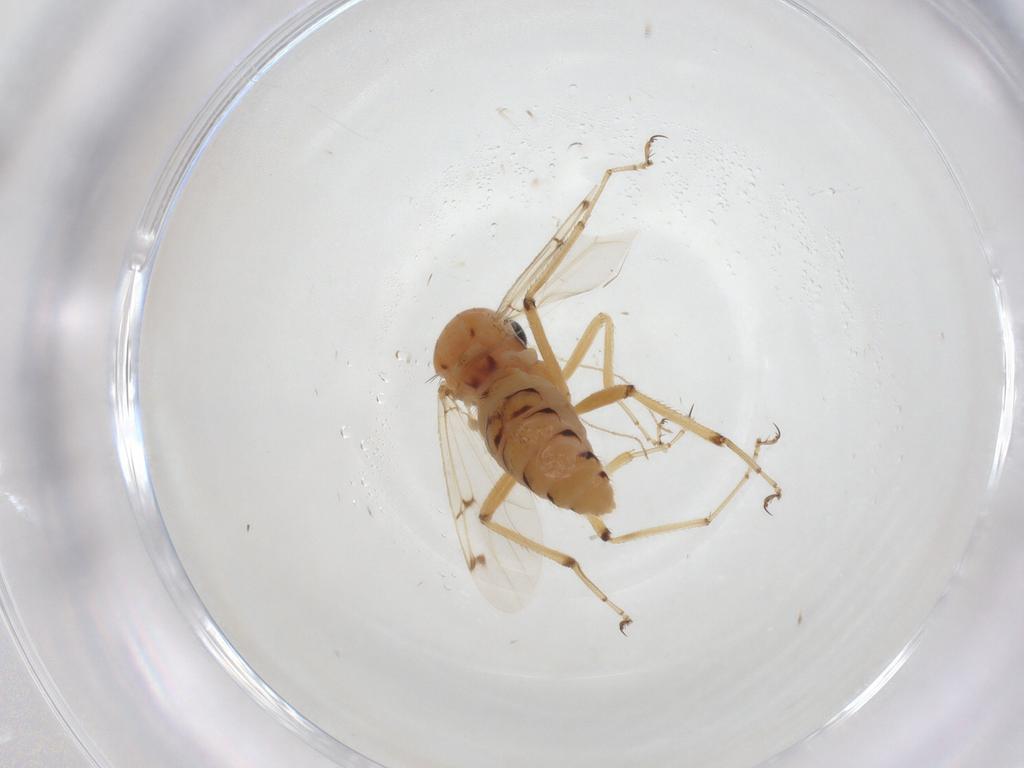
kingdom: Animalia
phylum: Arthropoda
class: Insecta
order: Diptera
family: Ceratopogonidae
